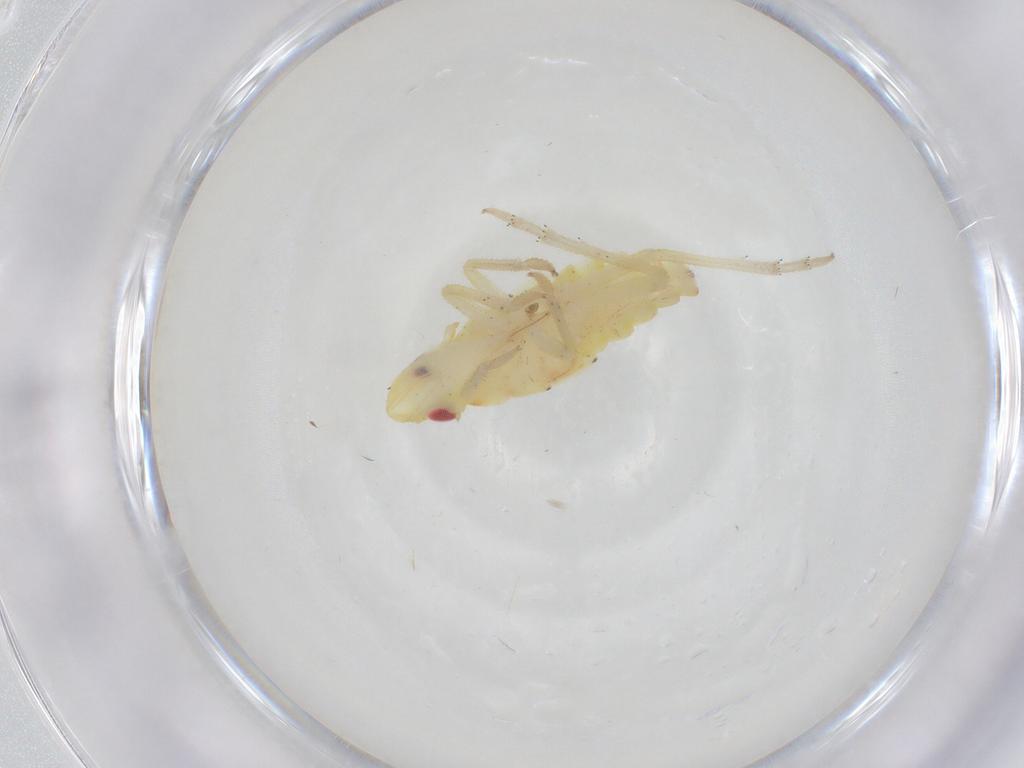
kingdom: Animalia
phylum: Arthropoda
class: Insecta
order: Hemiptera
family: Tropiduchidae
